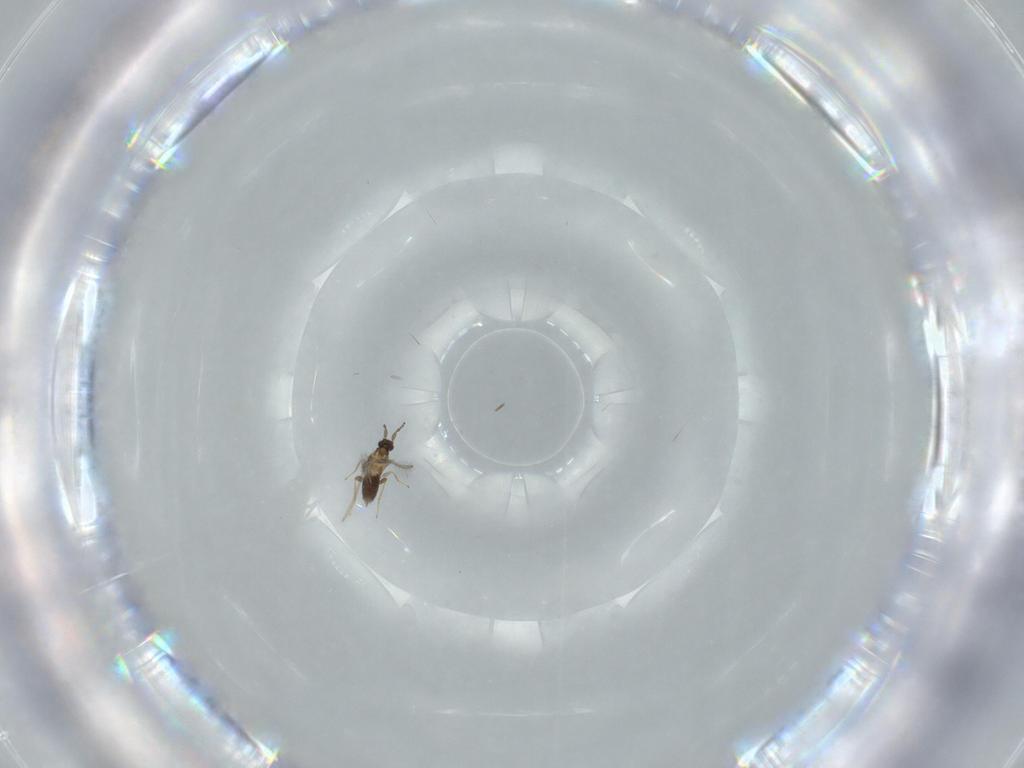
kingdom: Animalia
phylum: Arthropoda
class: Insecta
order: Hymenoptera
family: Mymaridae
